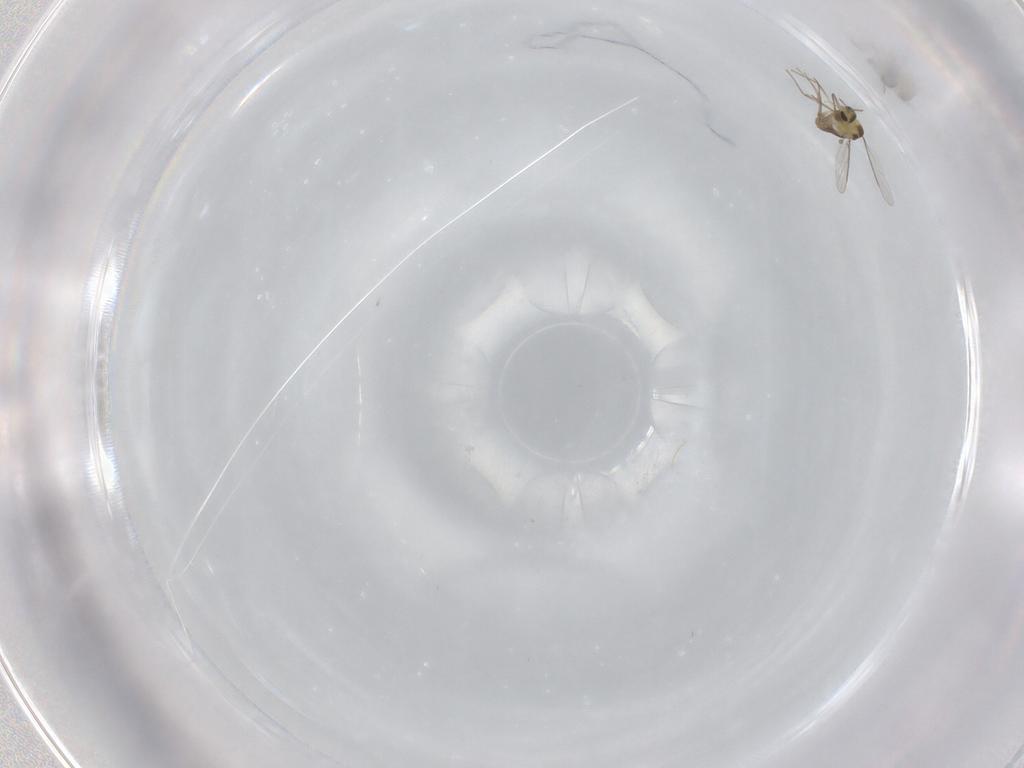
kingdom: Animalia
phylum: Arthropoda
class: Insecta
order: Diptera
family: Chironomidae
